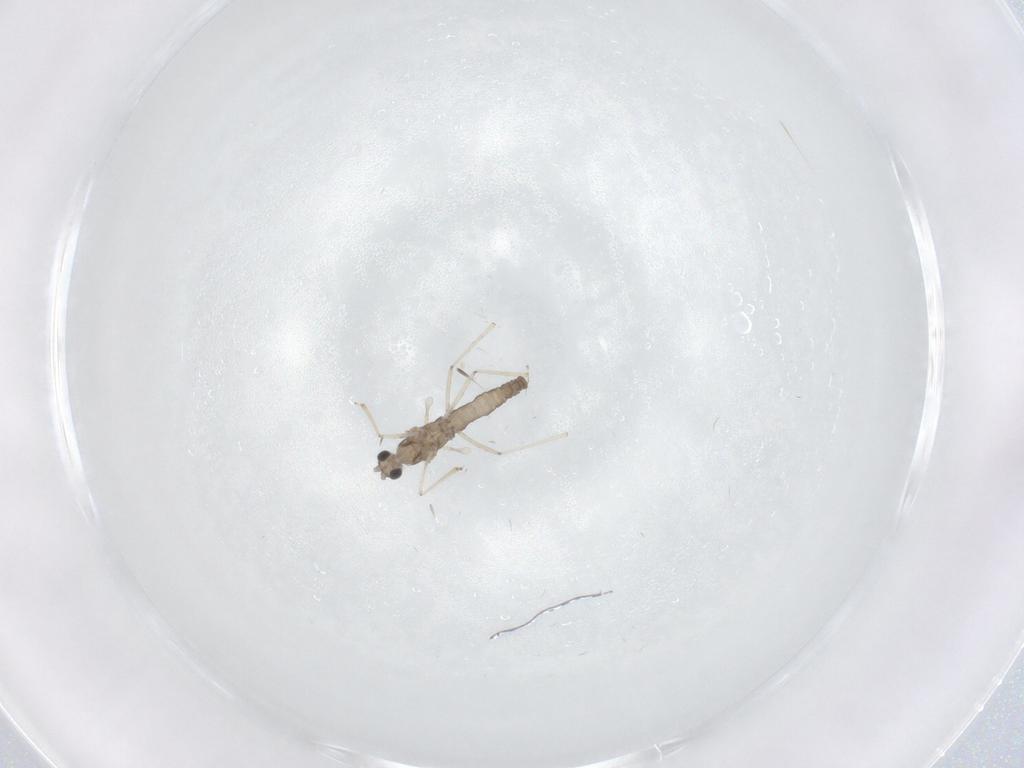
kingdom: Animalia
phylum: Arthropoda
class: Insecta
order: Diptera
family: Cecidomyiidae
